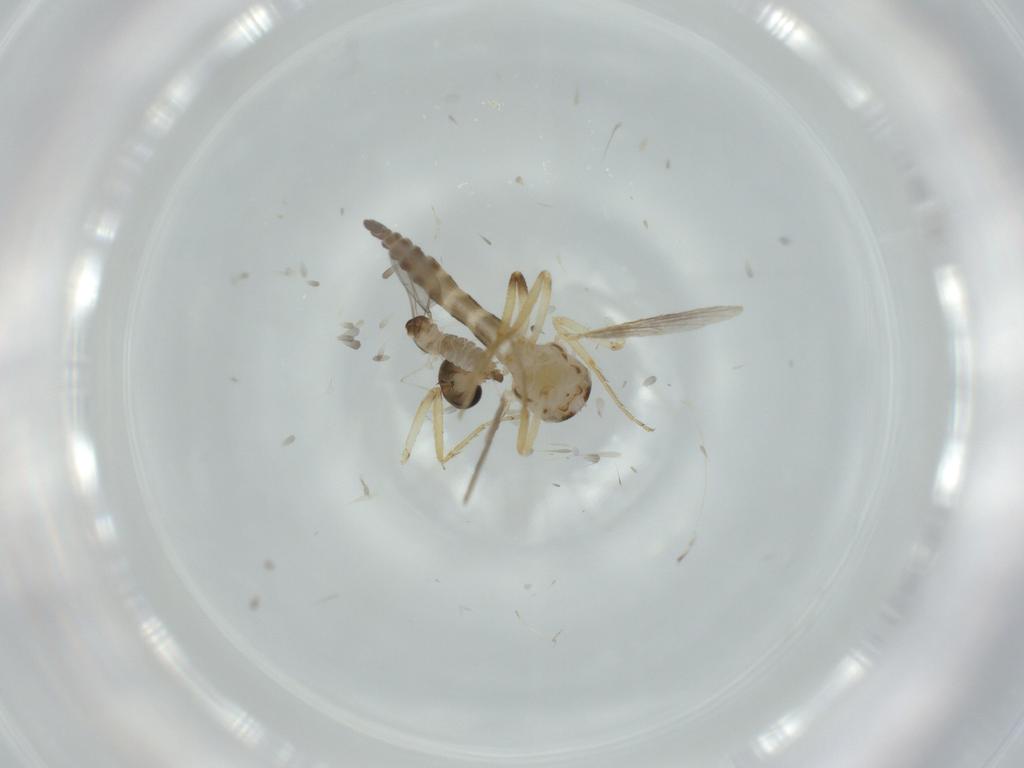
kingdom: Animalia
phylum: Arthropoda
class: Insecta
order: Diptera
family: Cecidomyiidae
